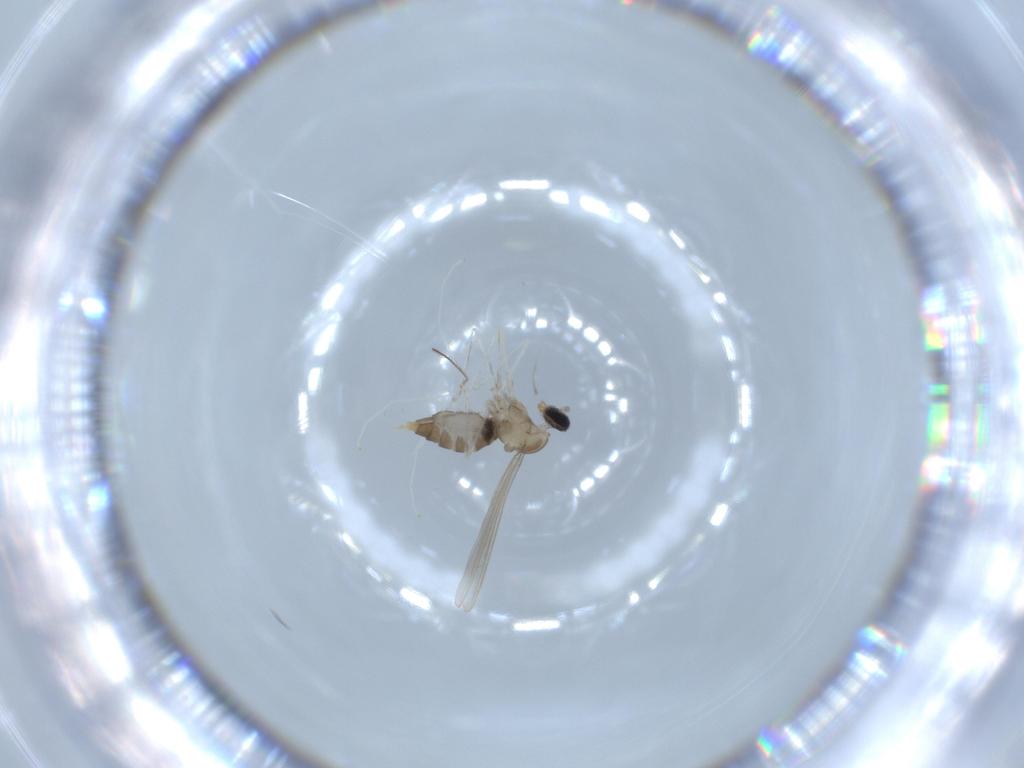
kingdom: Animalia
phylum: Arthropoda
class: Insecta
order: Diptera
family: Cecidomyiidae
